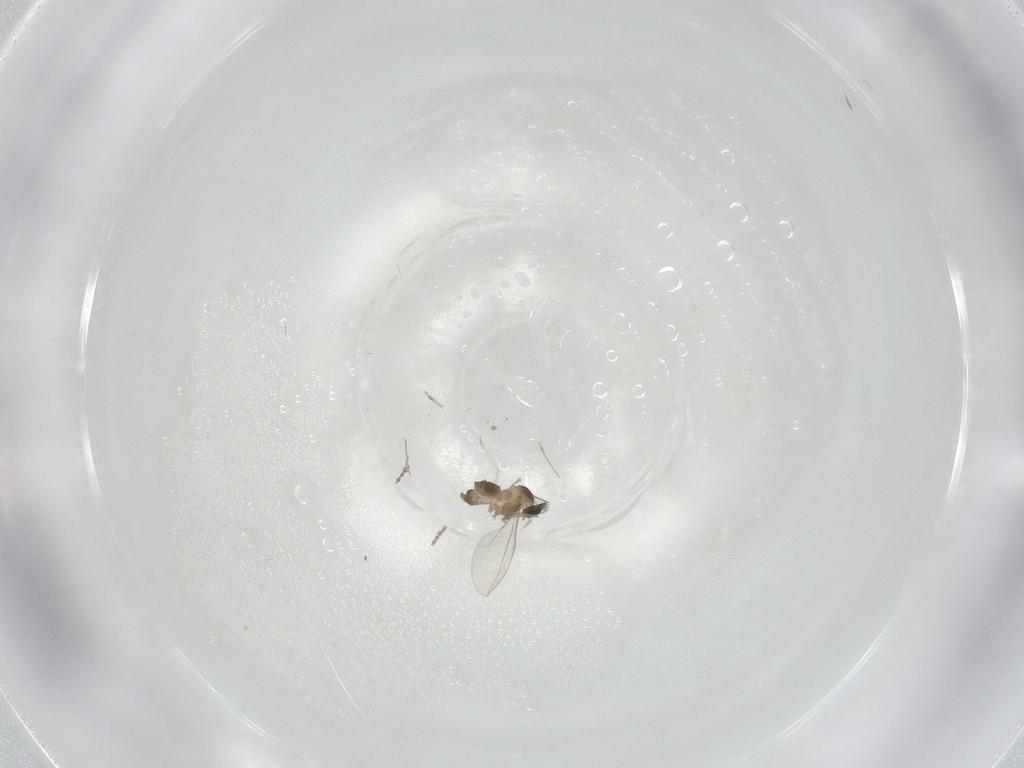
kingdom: Animalia
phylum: Arthropoda
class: Insecta
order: Diptera
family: Cecidomyiidae
